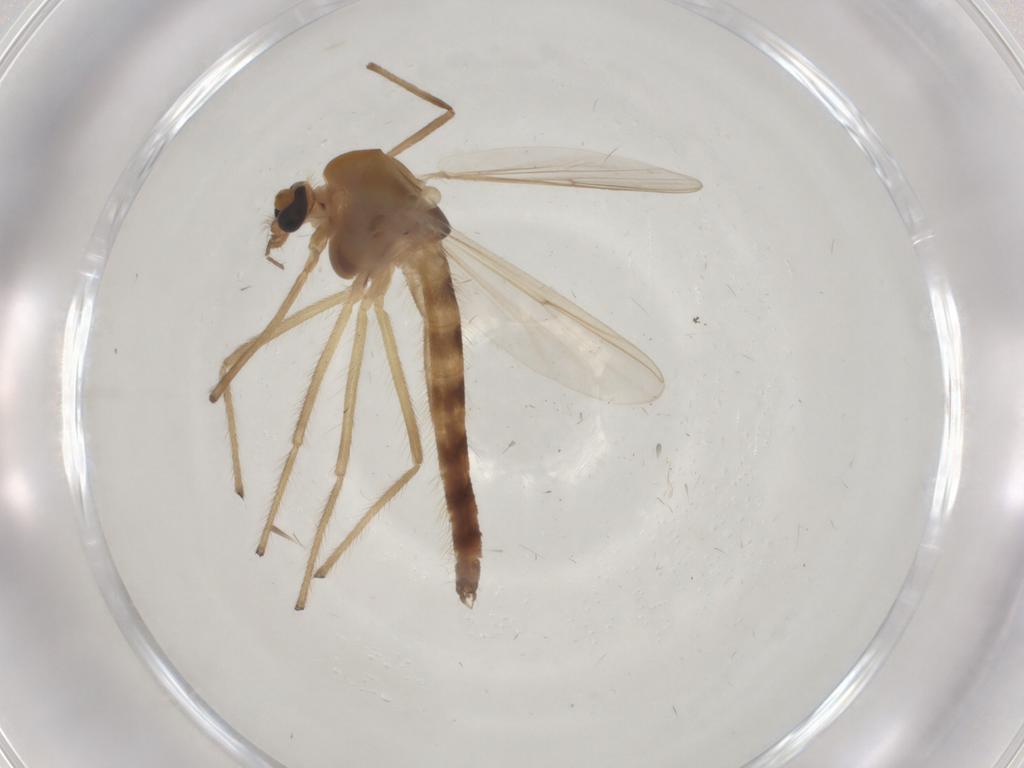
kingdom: Animalia
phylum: Arthropoda
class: Insecta
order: Diptera
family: Chironomidae
